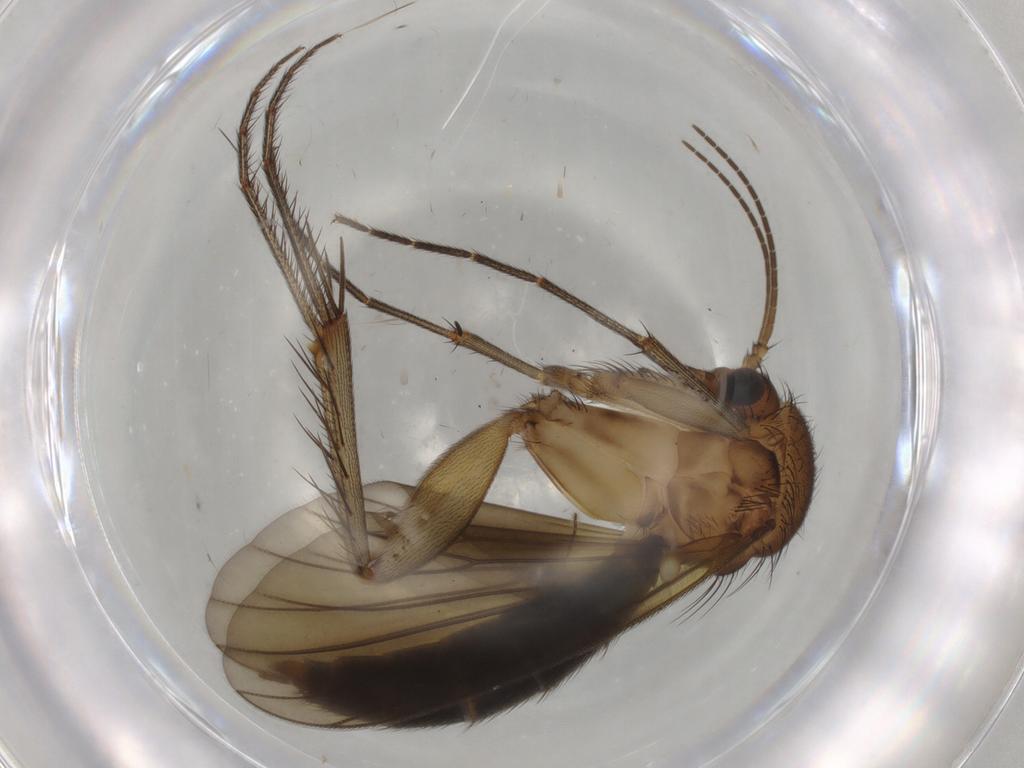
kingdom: Animalia
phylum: Arthropoda
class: Insecta
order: Diptera
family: Mycetophilidae
